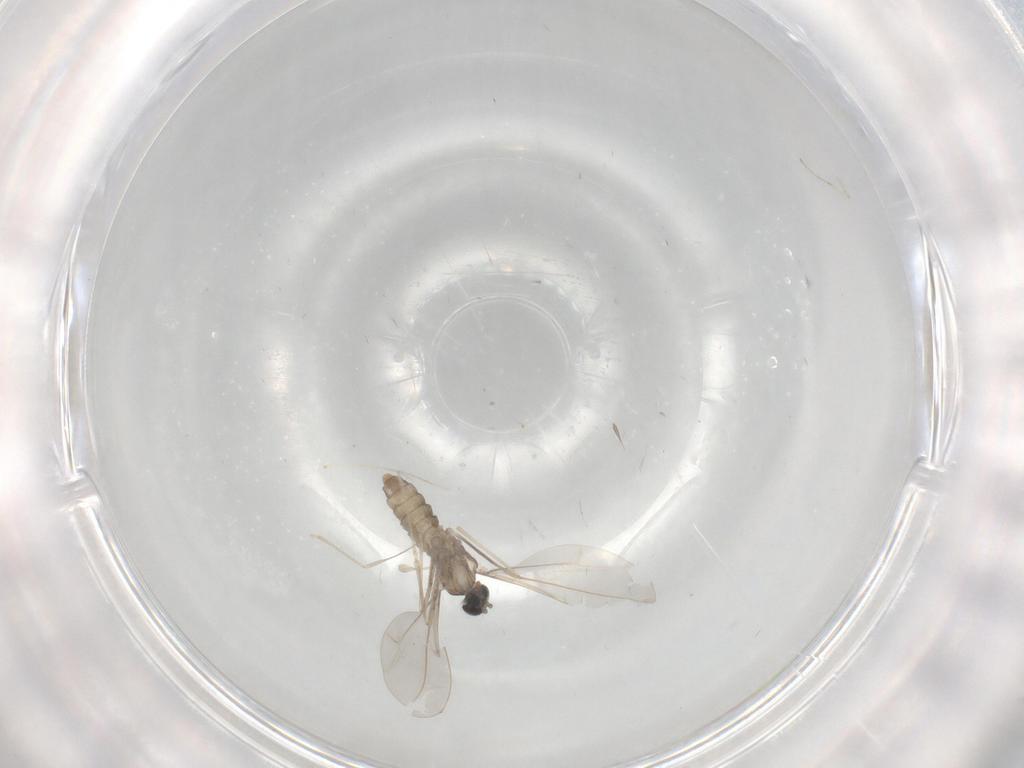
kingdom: Animalia
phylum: Arthropoda
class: Insecta
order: Diptera
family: Cecidomyiidae
